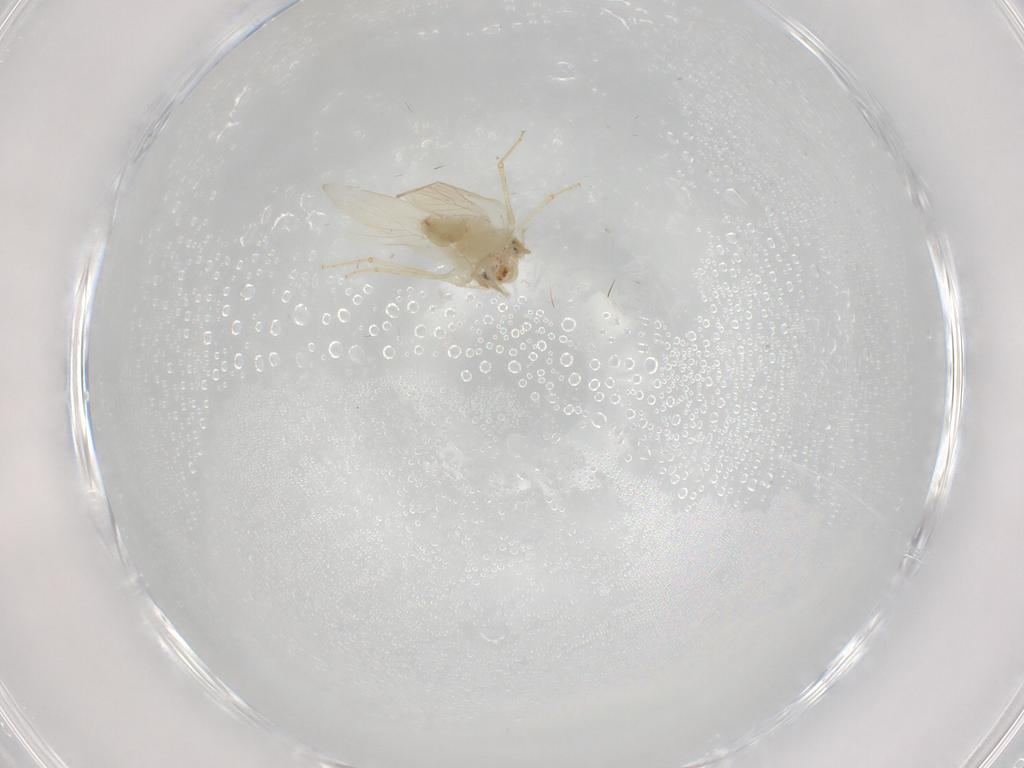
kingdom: Animalia
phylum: Arthropoda
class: Insecta
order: Psocodea
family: Lepidopsocidae
